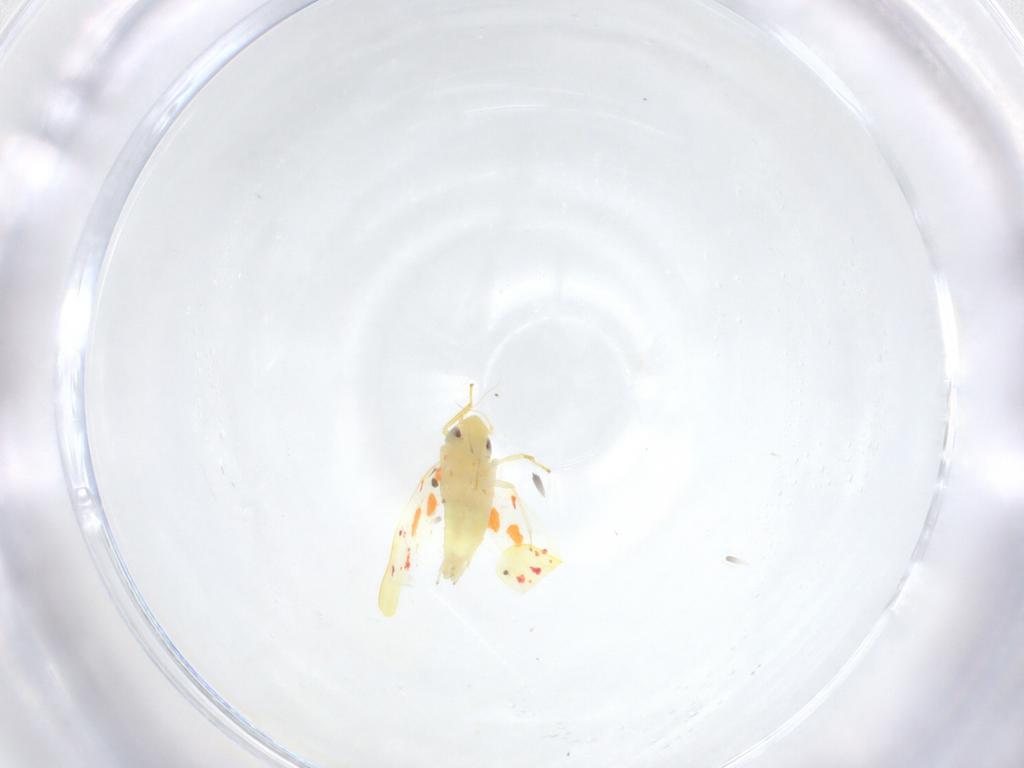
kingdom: Animalia
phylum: Arthropoda
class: Insecta
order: Hemiptera
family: Cicadellidae
